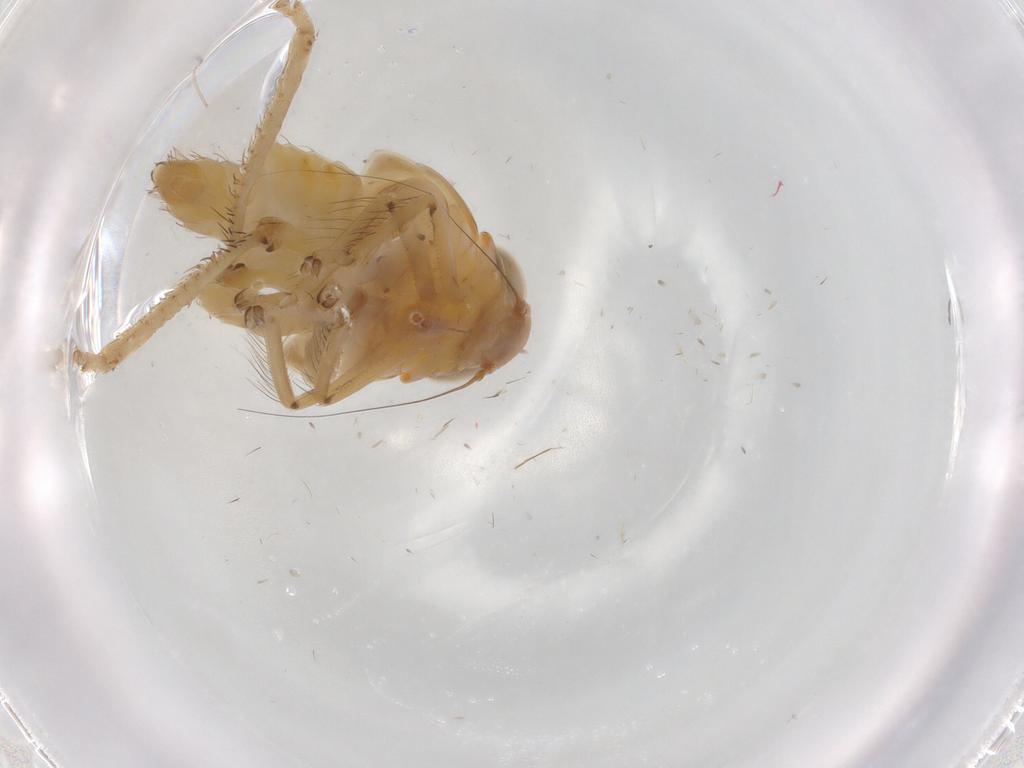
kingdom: Animalia
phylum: Arthropoda
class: Insecta
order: Hemiptera
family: Cicadellidae
